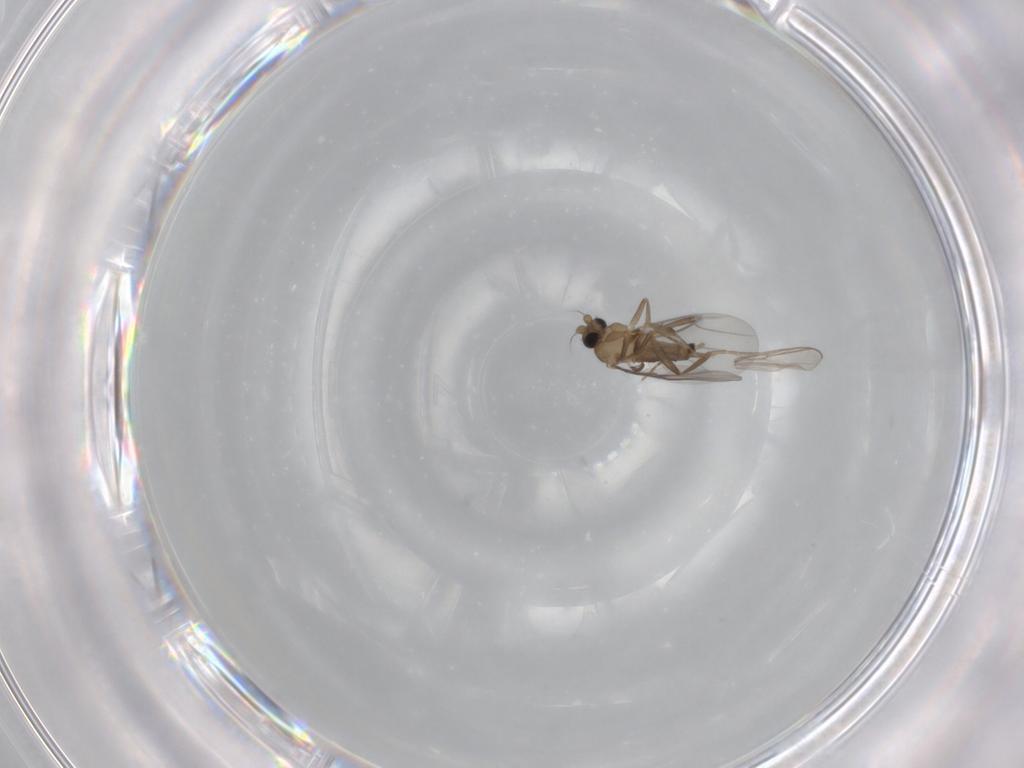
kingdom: Animalia
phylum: Arthropoda
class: Insecta
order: Diptera
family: Chironomidae
